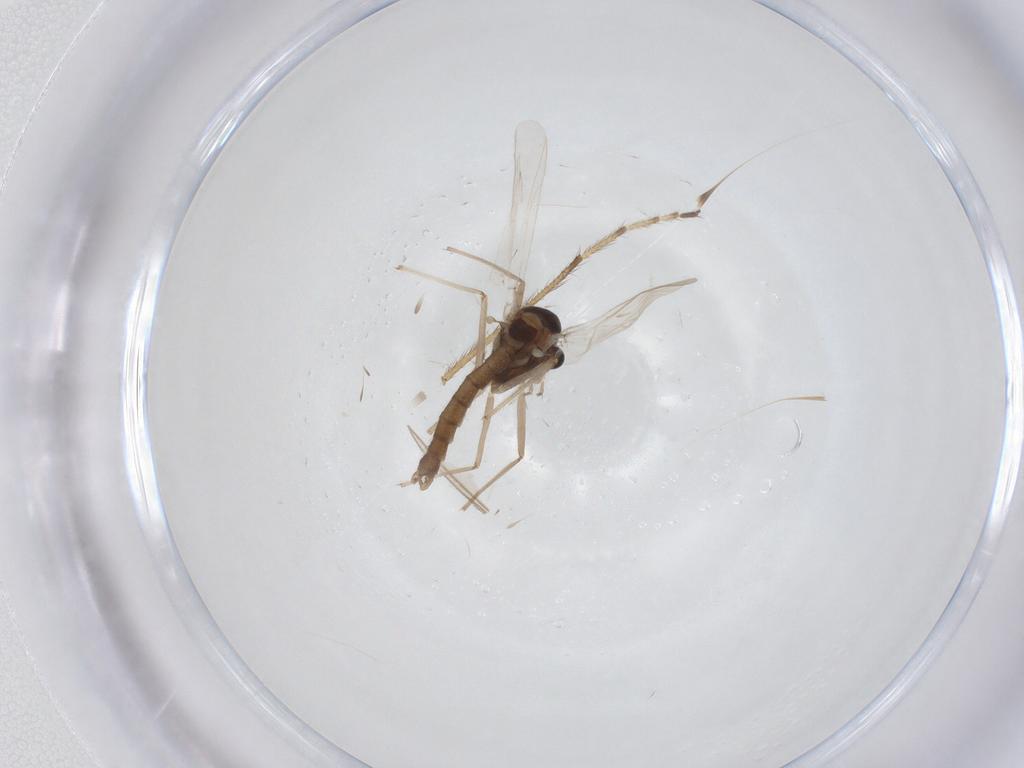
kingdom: Animalia
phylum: Arthropoda
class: Insecta
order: Diptera
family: Chironomidae
